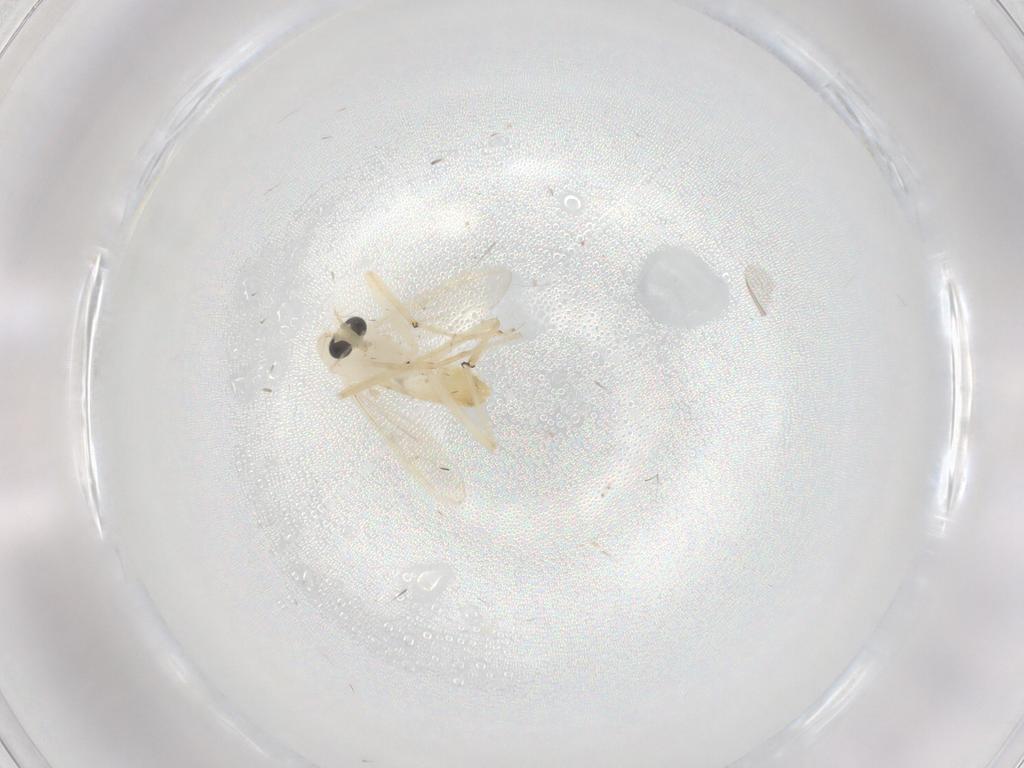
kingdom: Animalia
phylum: Arthropoda
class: Insecta
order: Diptera
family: Chironomidae
